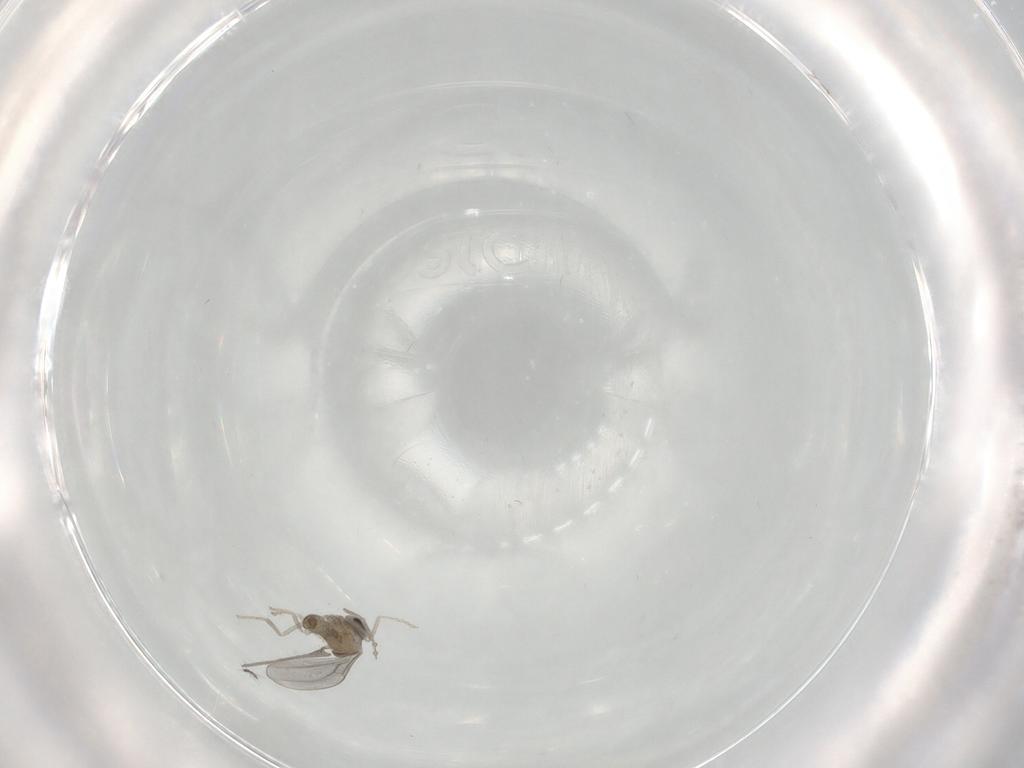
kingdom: Animalia
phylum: Arthropoda
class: Insecta
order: Diptera
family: Cecidomyiidae
